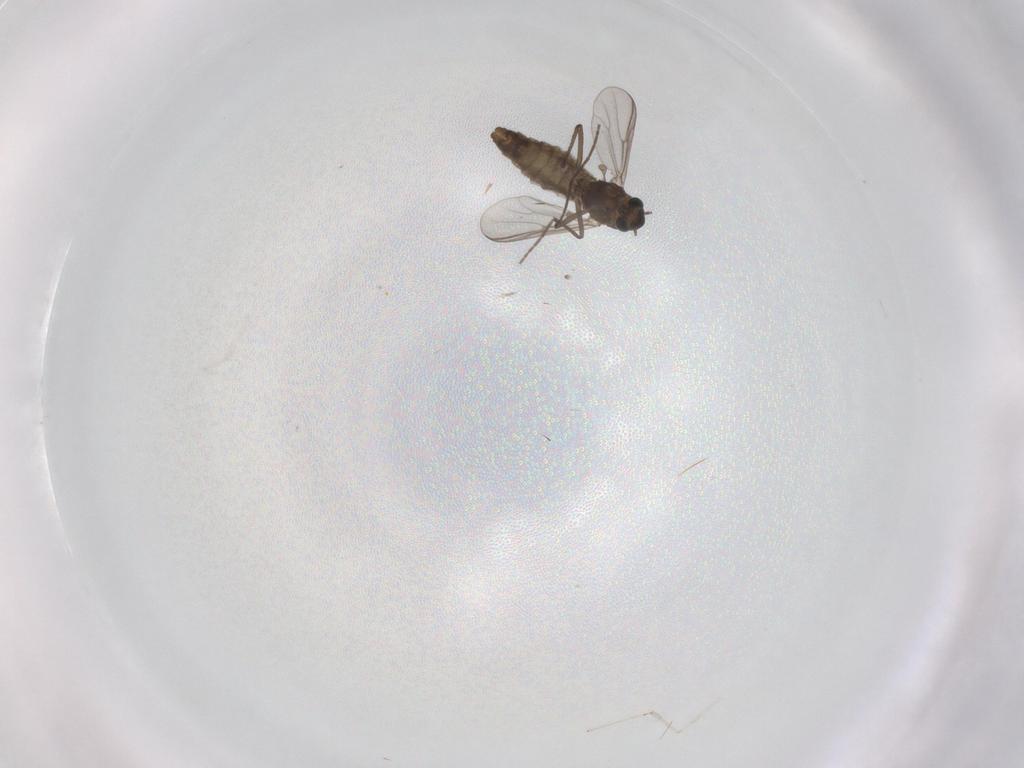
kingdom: Animalia
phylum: Arthropoda
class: Insecta
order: Diptera
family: Chironomidae
